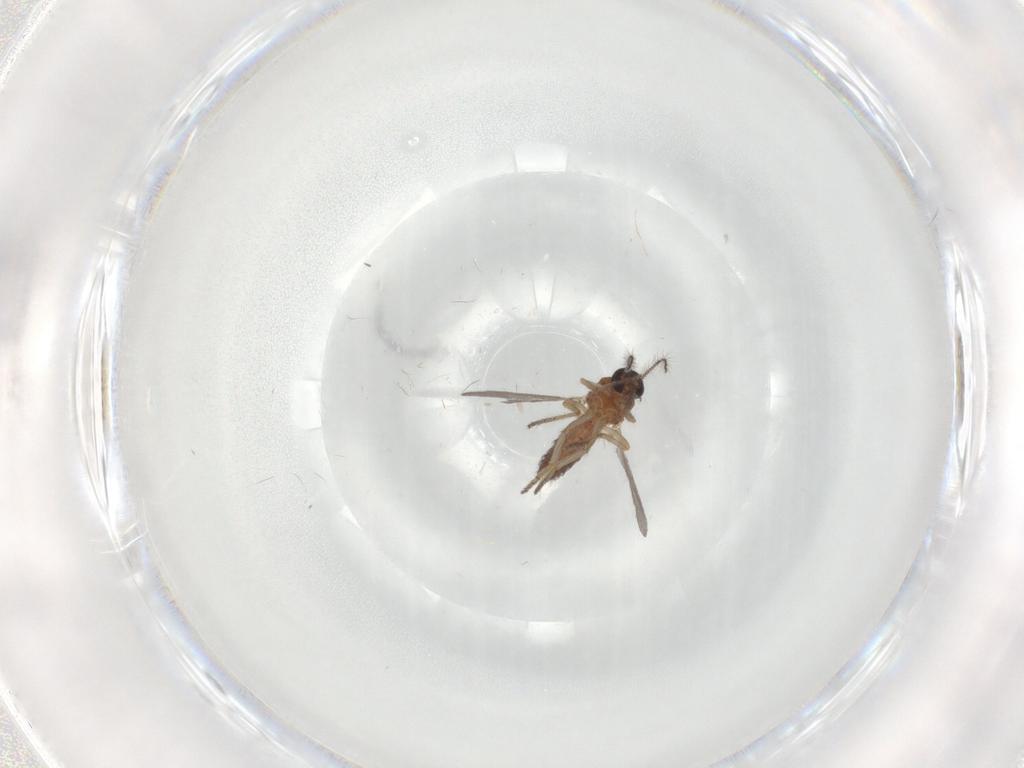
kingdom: Animalia
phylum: Arthropoda
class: Insecta
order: Diptera
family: Ceratopogonidae
